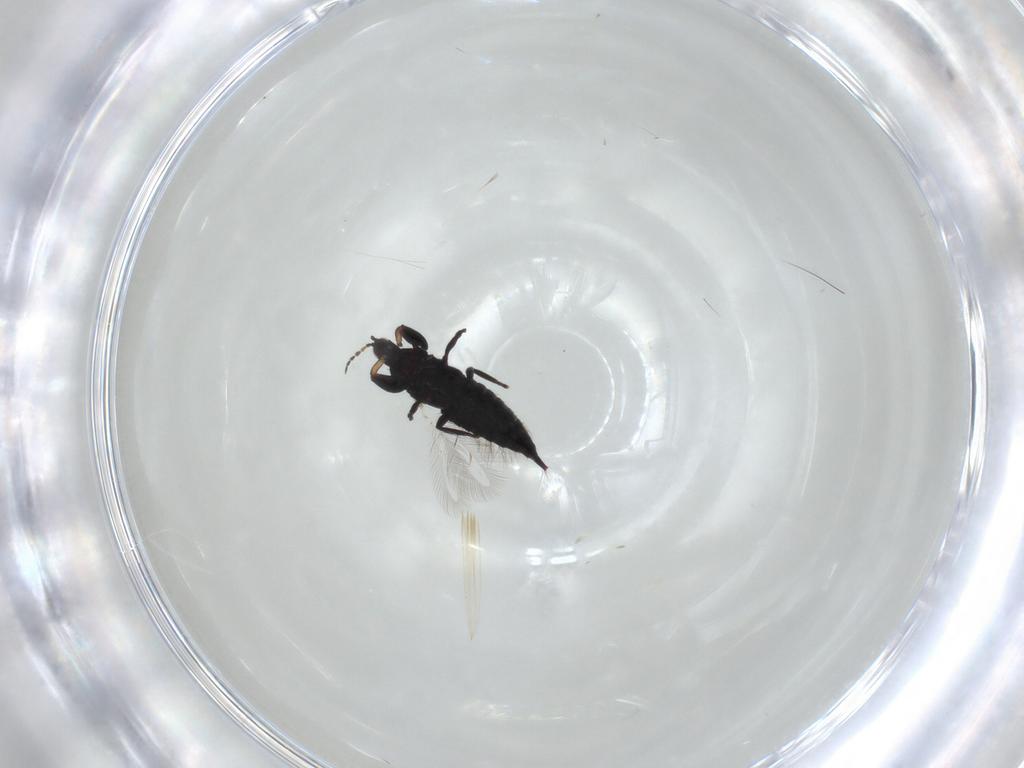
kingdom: Animalia
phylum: Arthropoda
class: Insecta
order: Thysanoptera
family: Phlaeothripidae
